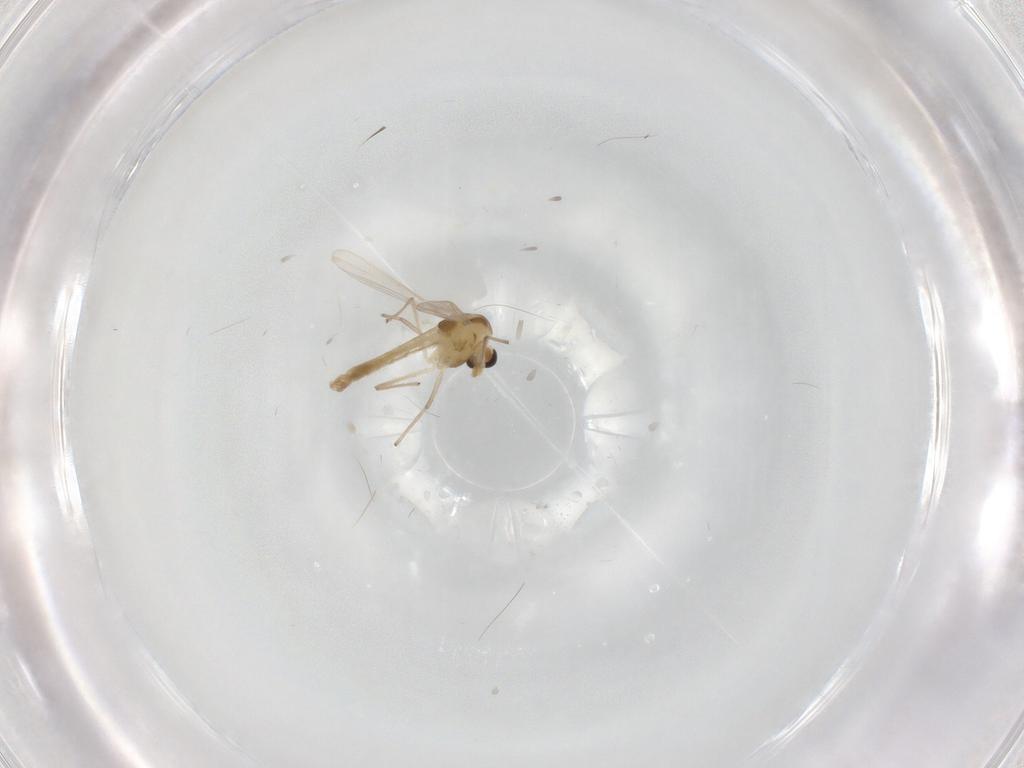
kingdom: Animalia
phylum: Arthropoda
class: Insecta
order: Diptera
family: Chironomidae
